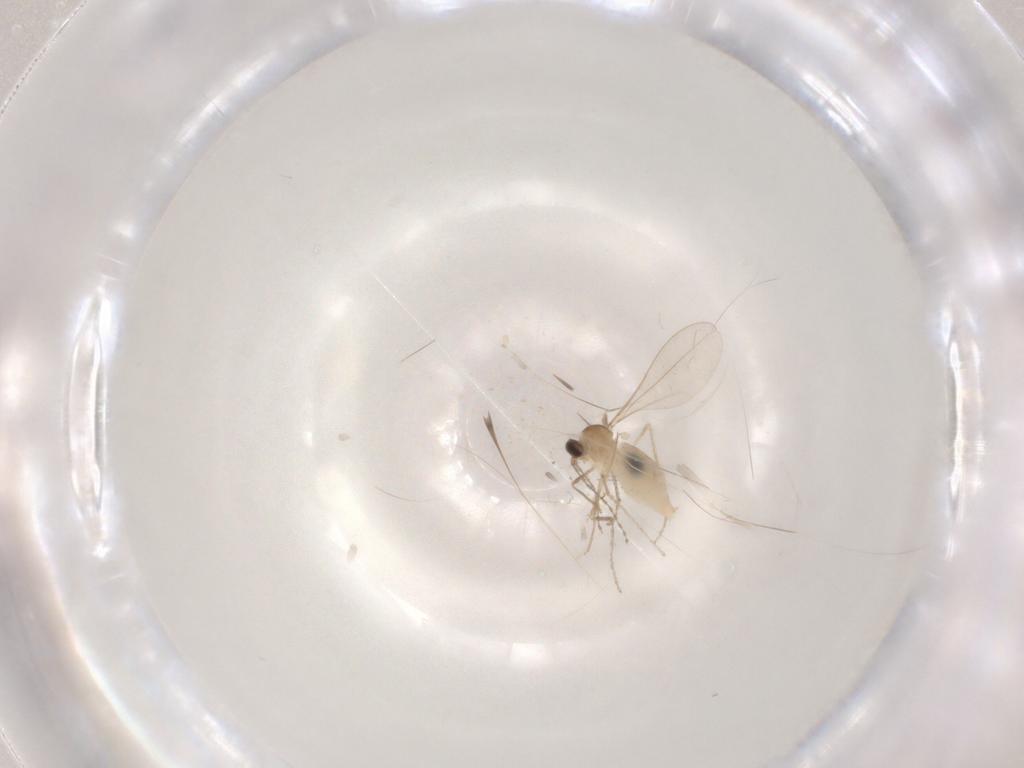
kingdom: Animalia
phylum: Arthropoda
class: Insecta
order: Diptera
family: Cecidomyiidae
